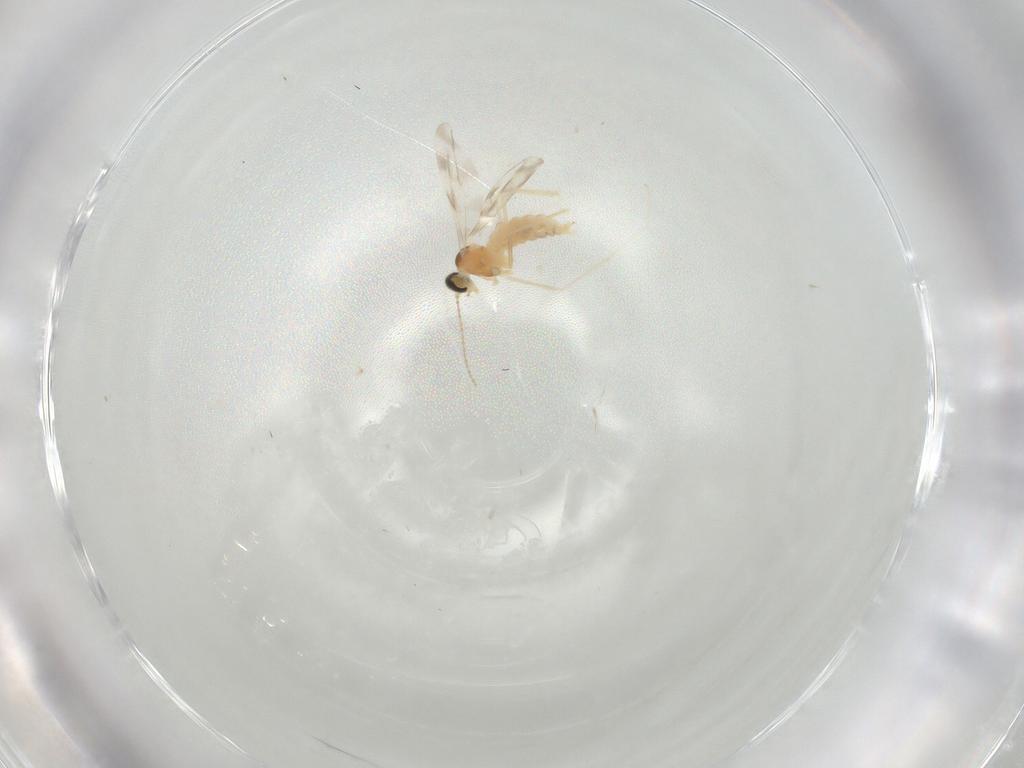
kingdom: Animalia
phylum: Arthropoda
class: Insecta
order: Diptera
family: Cecidomyiidae
